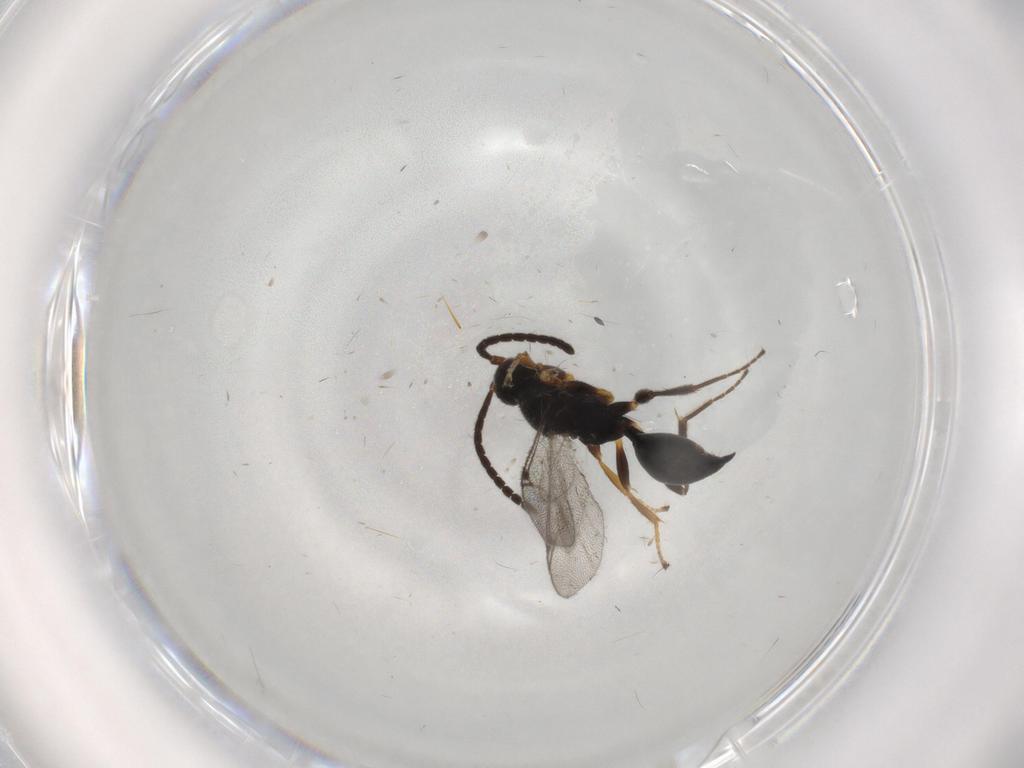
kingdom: Animalia
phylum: Arthropoda
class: Insecta
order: Hymenoptera
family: Proctotrupidae
